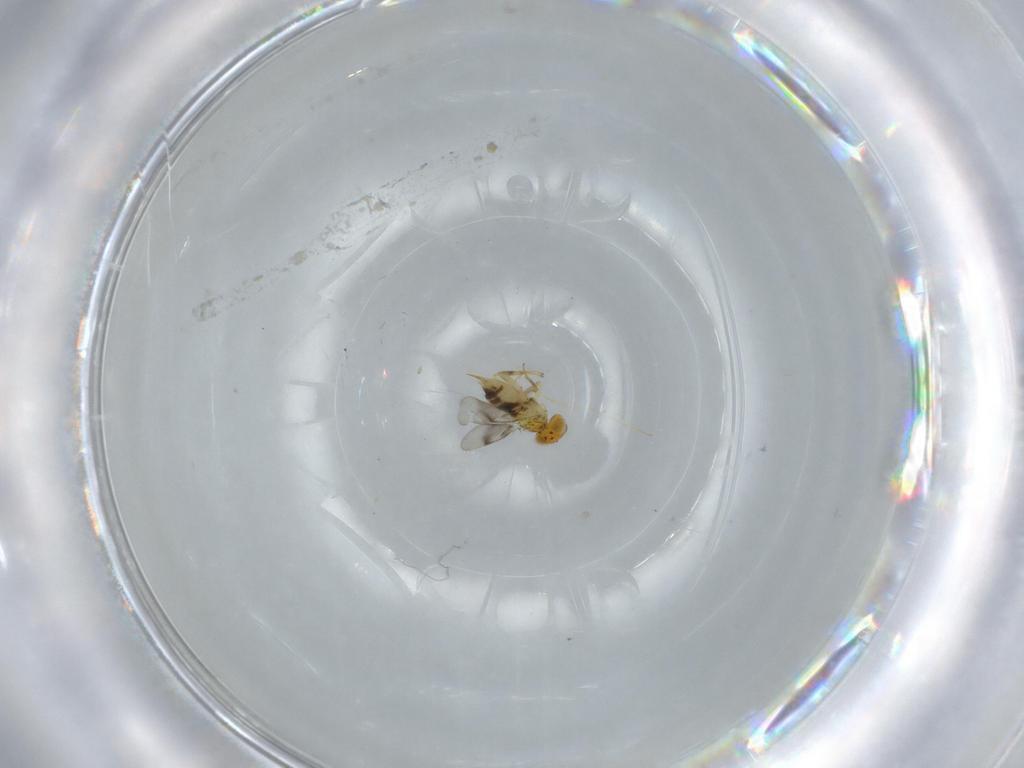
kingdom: Animalia
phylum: Arthropoda
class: Insecta
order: Hymenoptera
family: Aphelinidae
